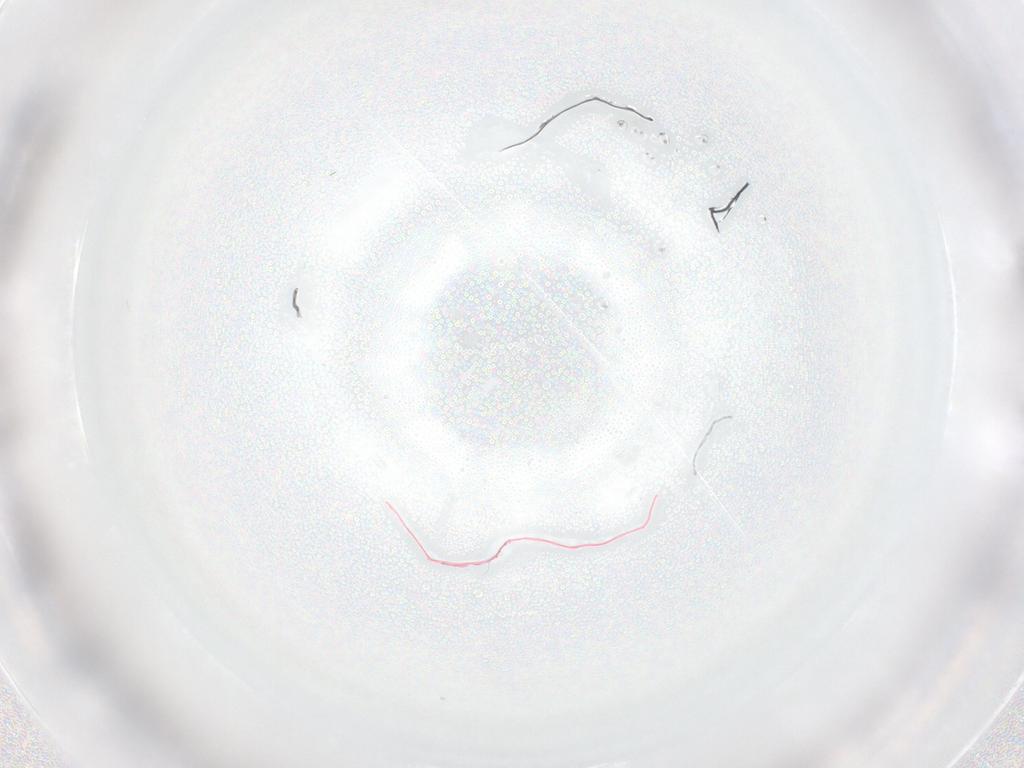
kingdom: Animalia
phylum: Arthropoda
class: Insecta
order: Diptera
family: Chironomidae
